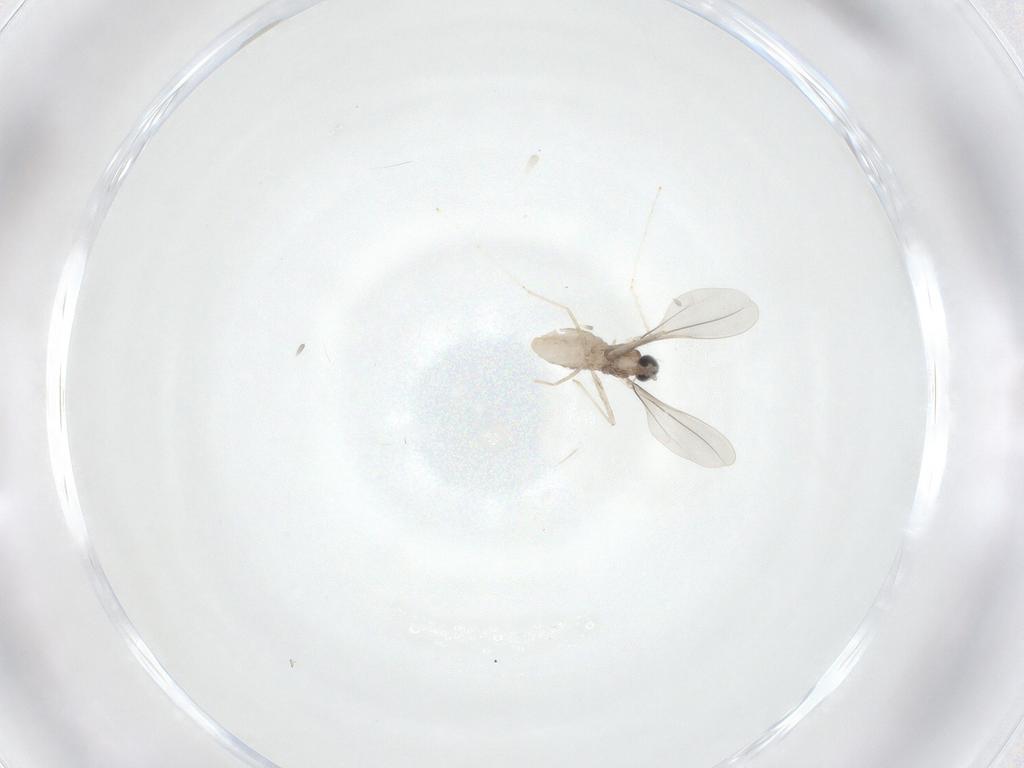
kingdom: Animalia
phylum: Arthropoda
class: Insecta
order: Diptera
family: Cecidomyiidae
